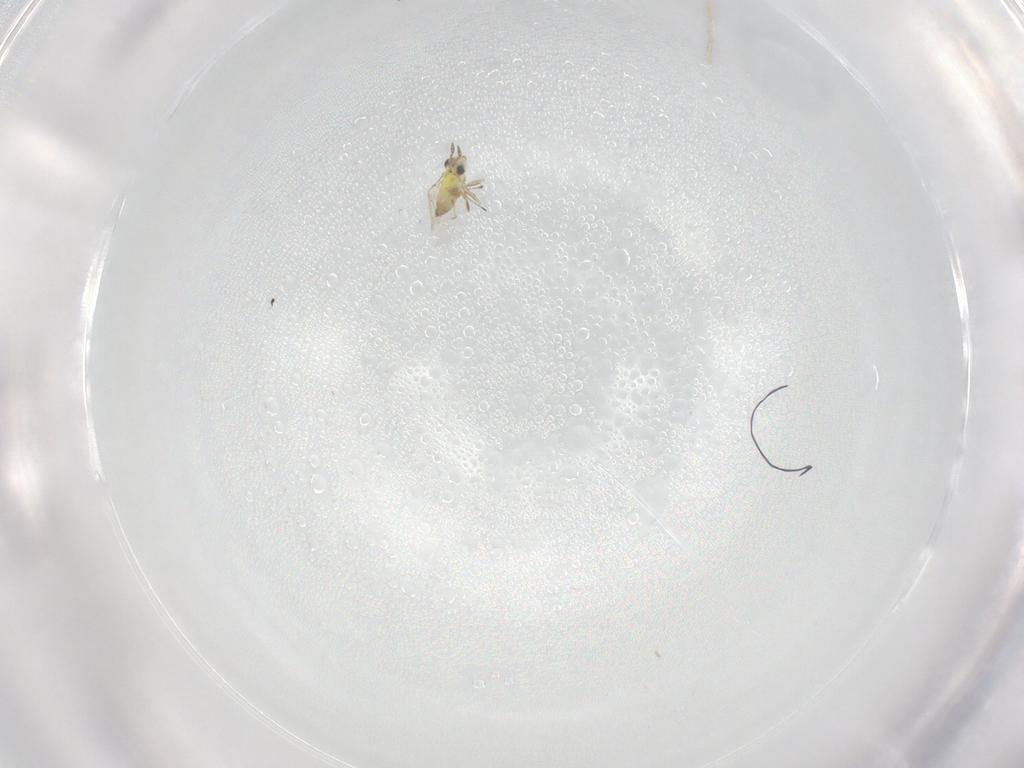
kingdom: Animalia
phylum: Arthropoda
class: Insecta
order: Hymenoptera
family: Trichogrammatidae
